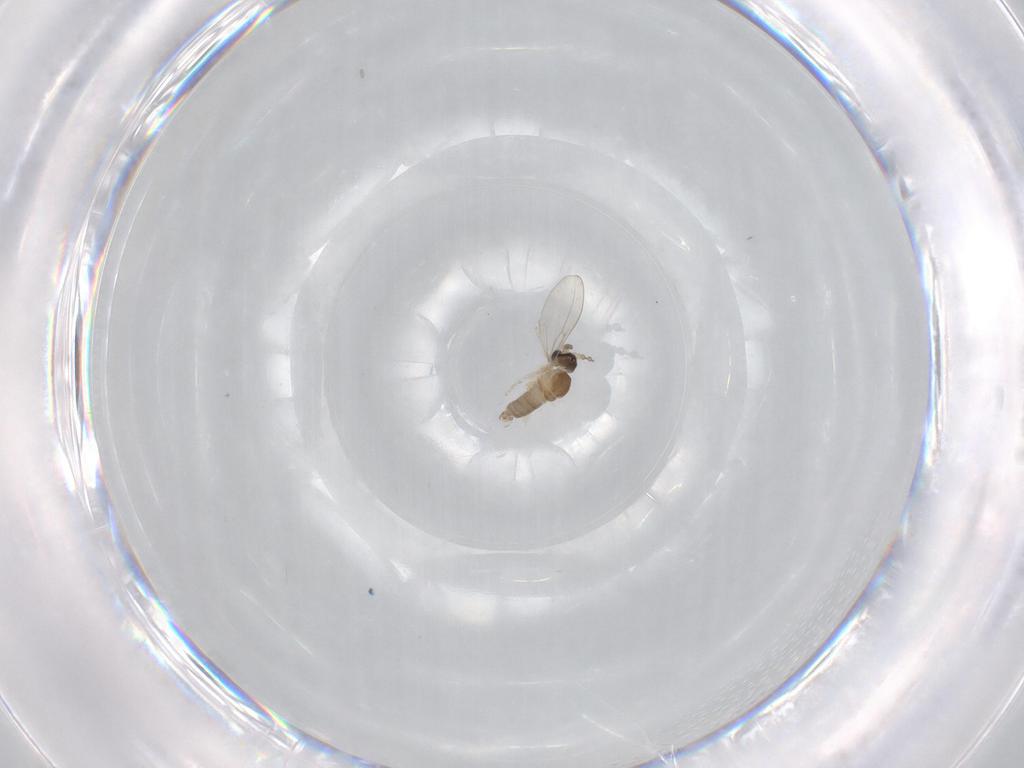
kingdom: Animalia
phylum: Arthropoda
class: Insecta
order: Diptera
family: Cecidomyiidae
